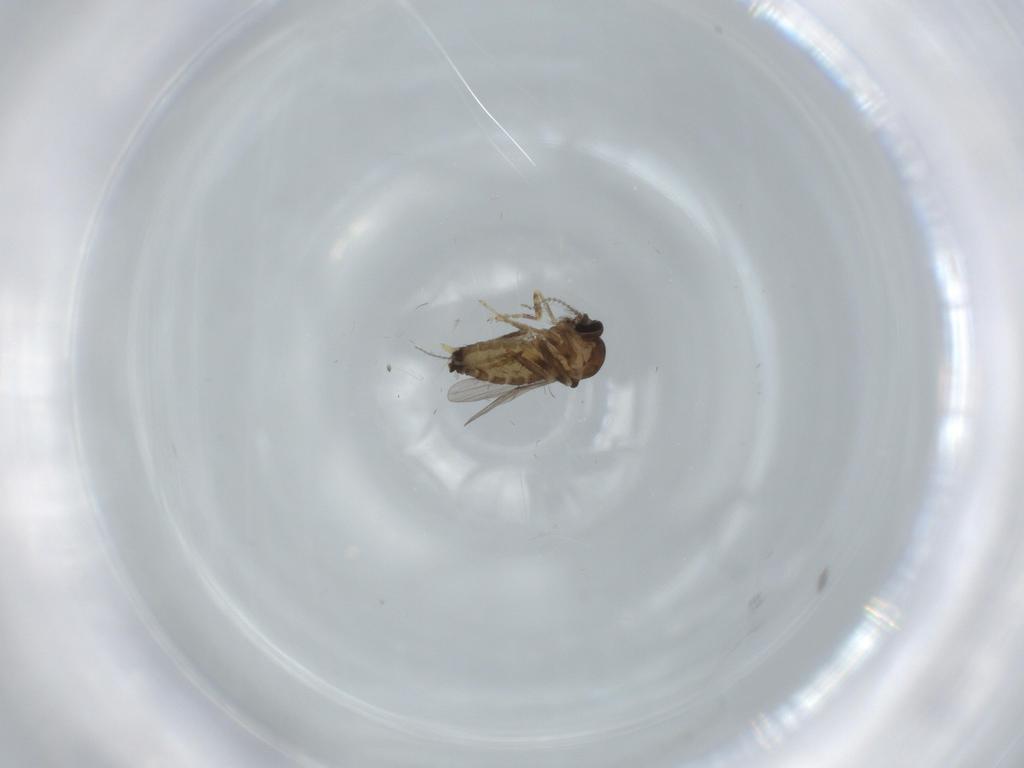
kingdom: Animalia
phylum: Arthropoda
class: Insecta
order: Diptera
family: Ceratopogonidae
